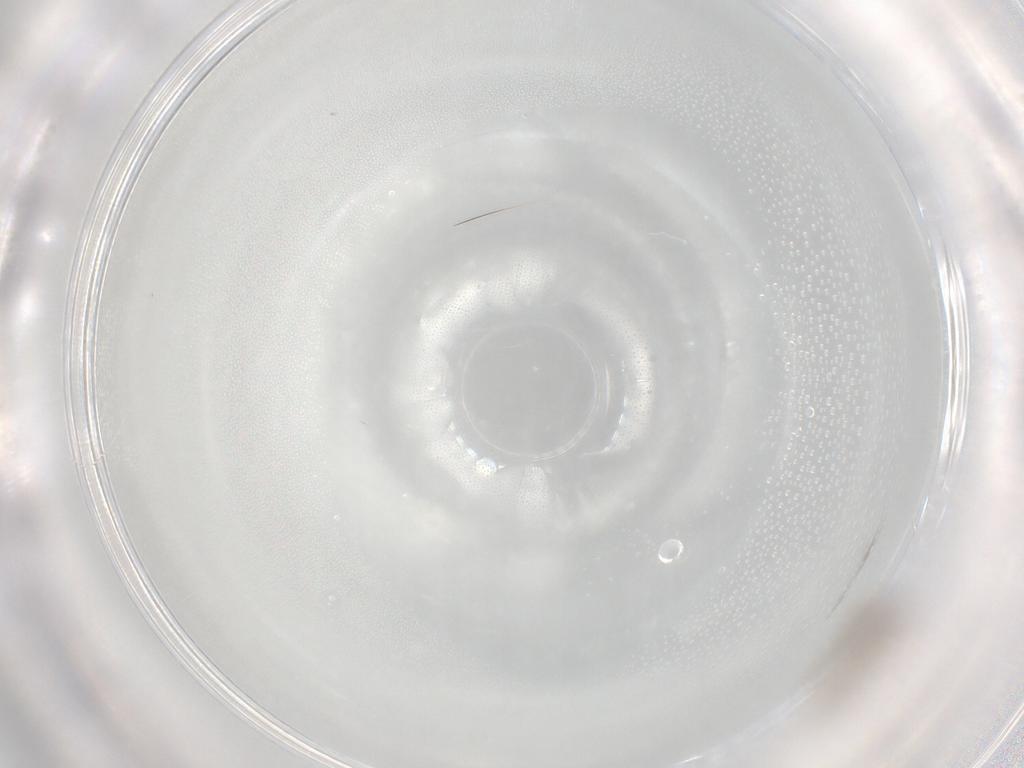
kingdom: Animalia
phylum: Arthropoda
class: Insecta
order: Diptera
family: Cecidomyiidae
